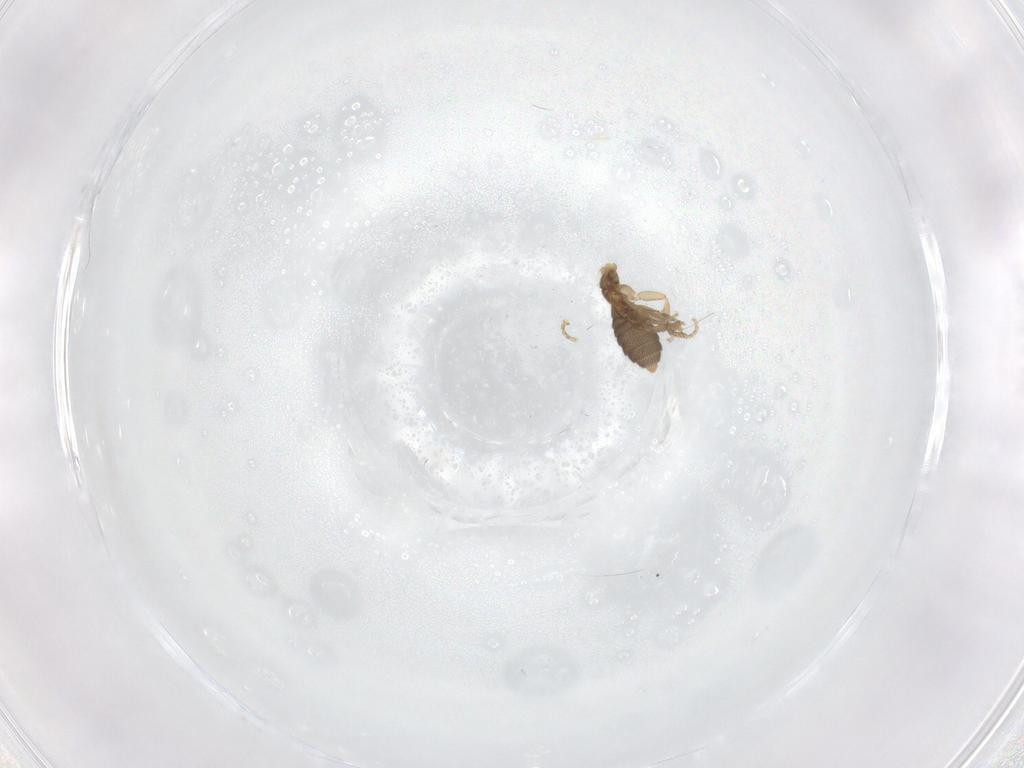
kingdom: Animalia
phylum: Arthropoda
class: Insecta
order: Diptera
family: Phoridae
